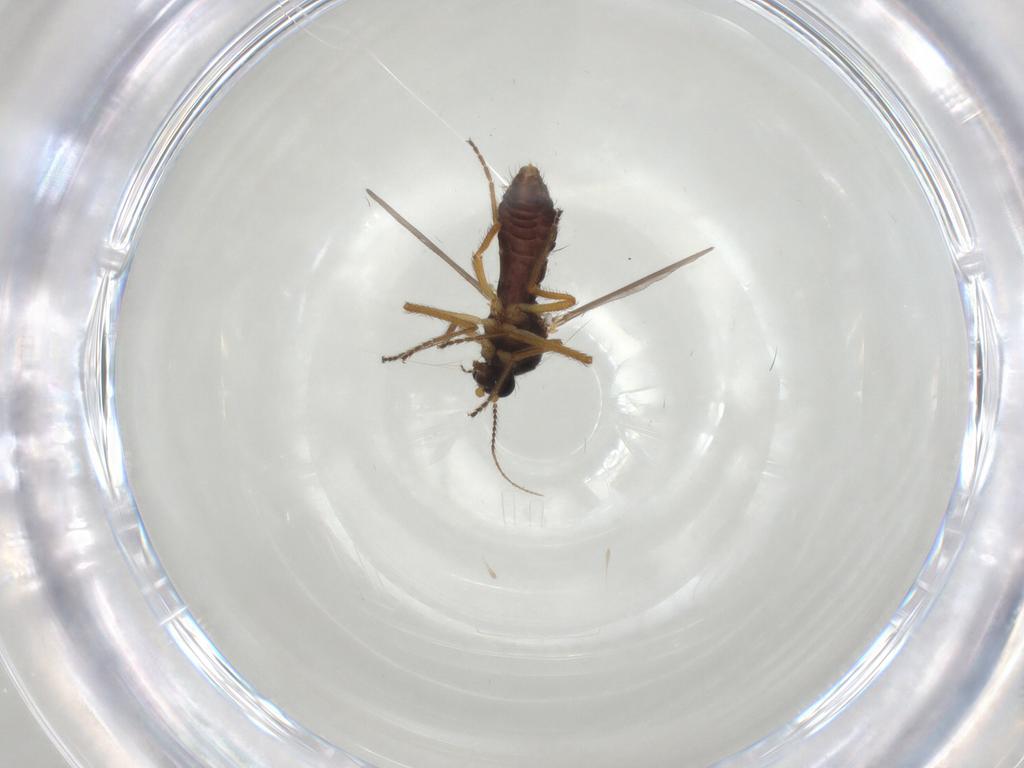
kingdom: Animalia
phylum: Arthropoda
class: Insecta
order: Diptera
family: Ceratopogonidae
